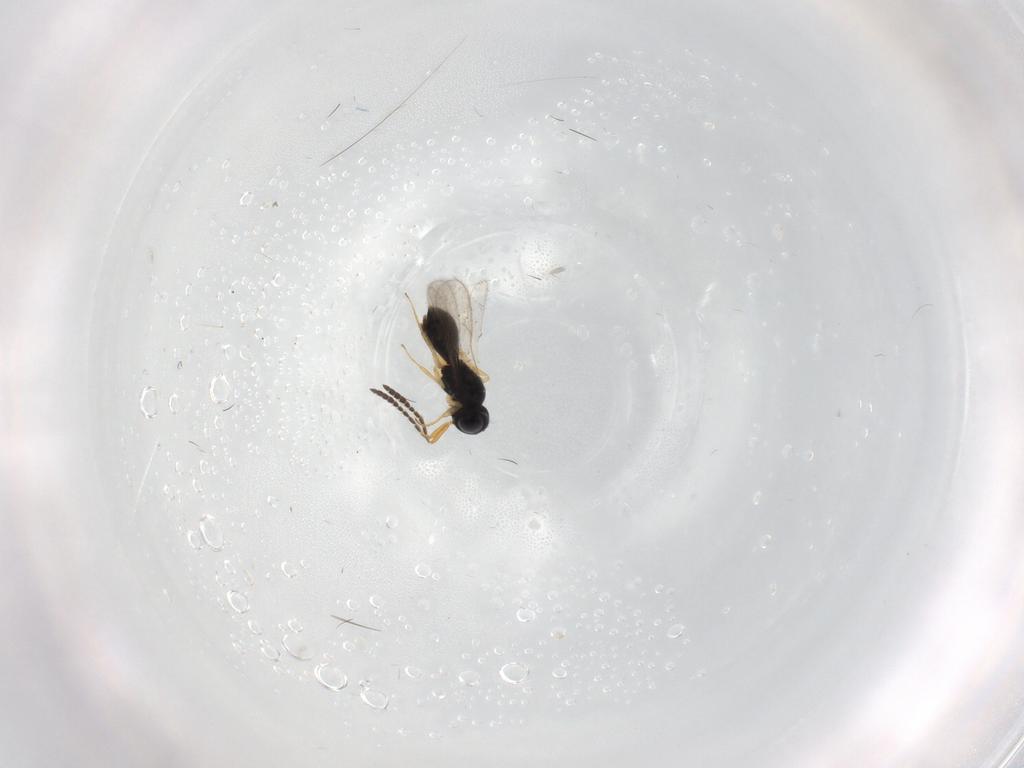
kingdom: Animalia
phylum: Arthropoda
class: Insecta
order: Hymenoptera
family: Scelionidae
